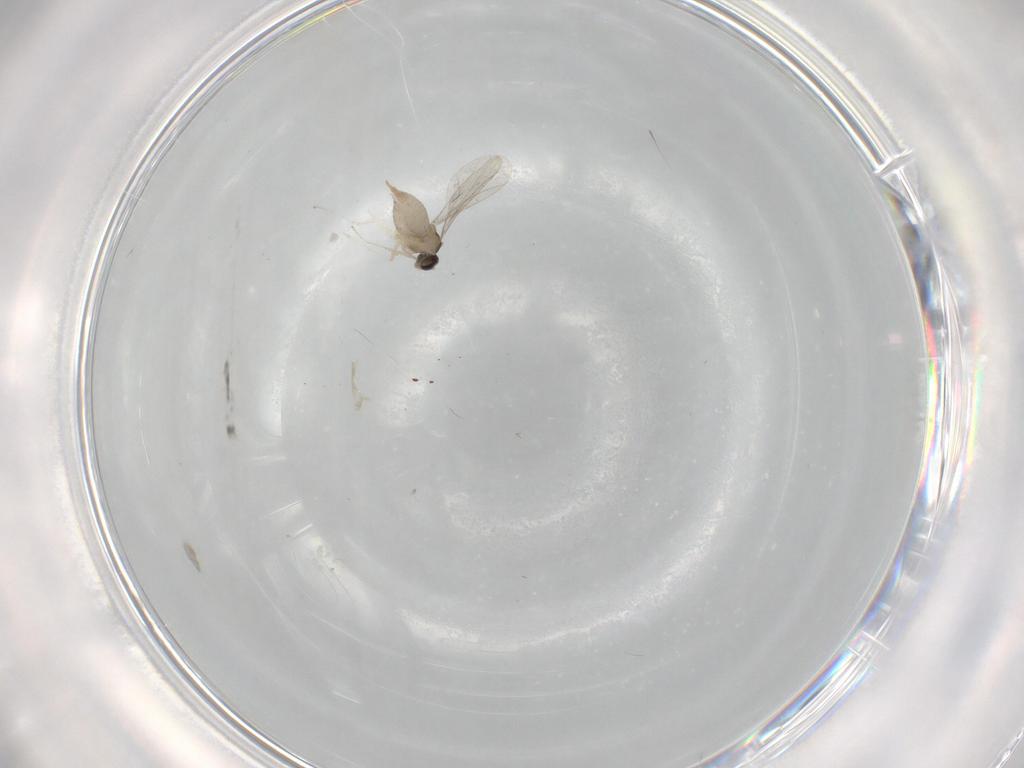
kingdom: Animalia
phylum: Arthropoda
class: Insecta
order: Diptera
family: Cecidomyiidae
